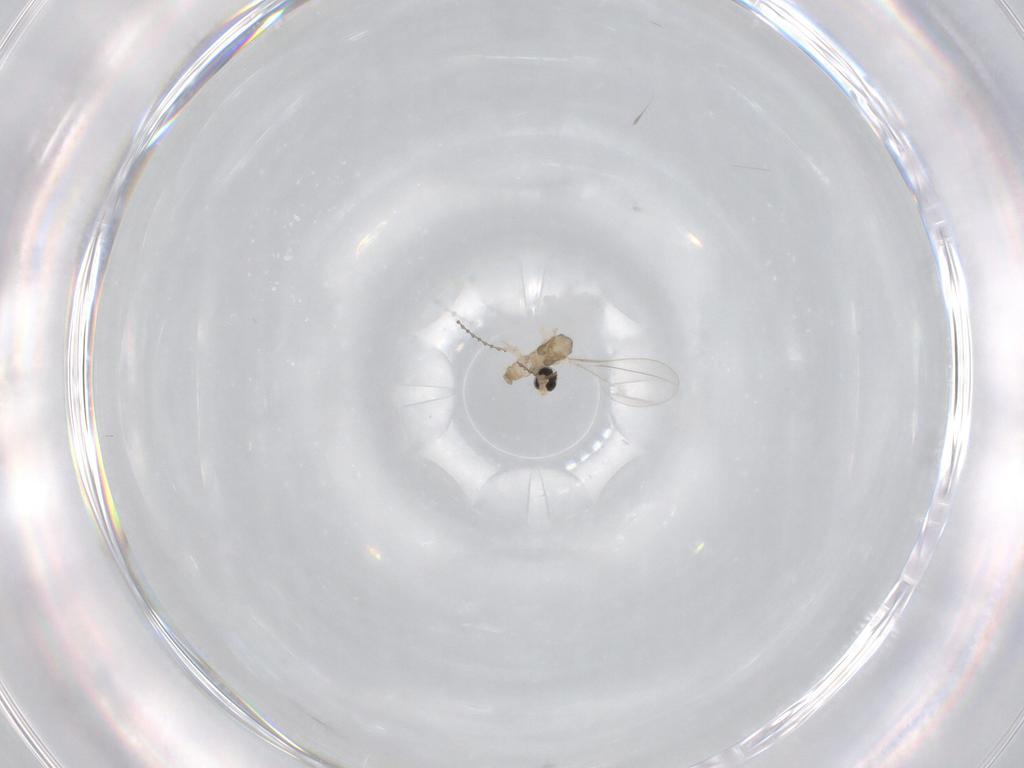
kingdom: Animalia
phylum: Arthropoda
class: Insecta
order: Diptera
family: Cecidomyiidae
